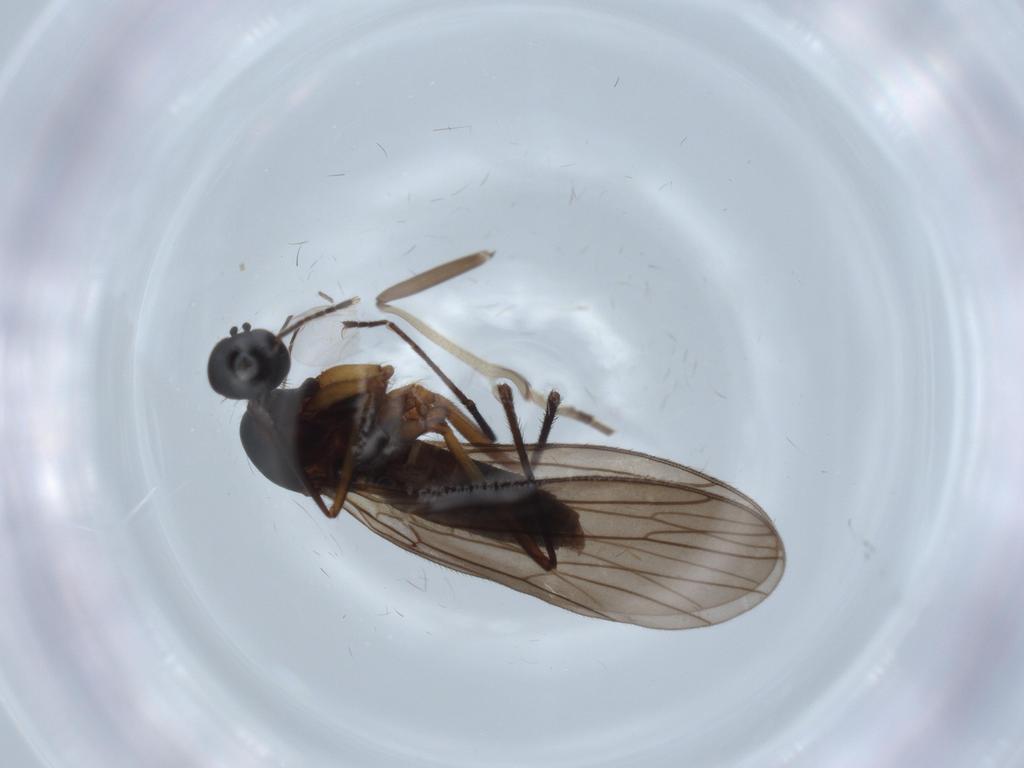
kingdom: Animalia
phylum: Arthropoda
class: Insecta
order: Diptera
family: Empididae
